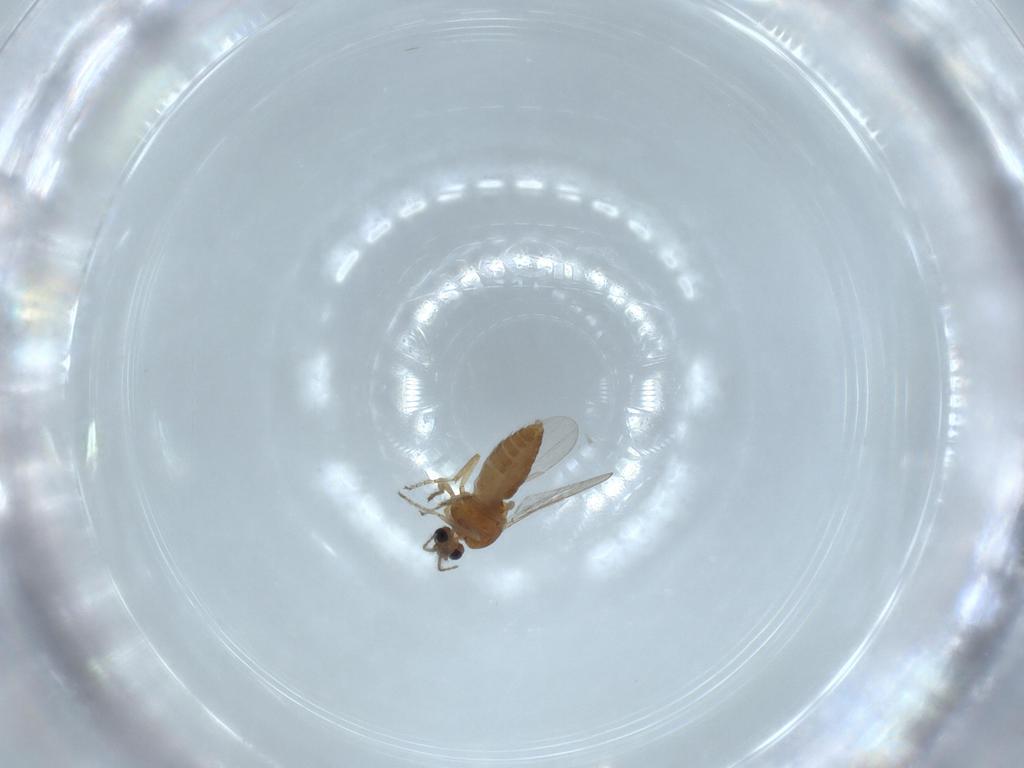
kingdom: Animalia
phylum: Arthropoda
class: Insecta
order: Diptera
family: Ceratopogonidae
